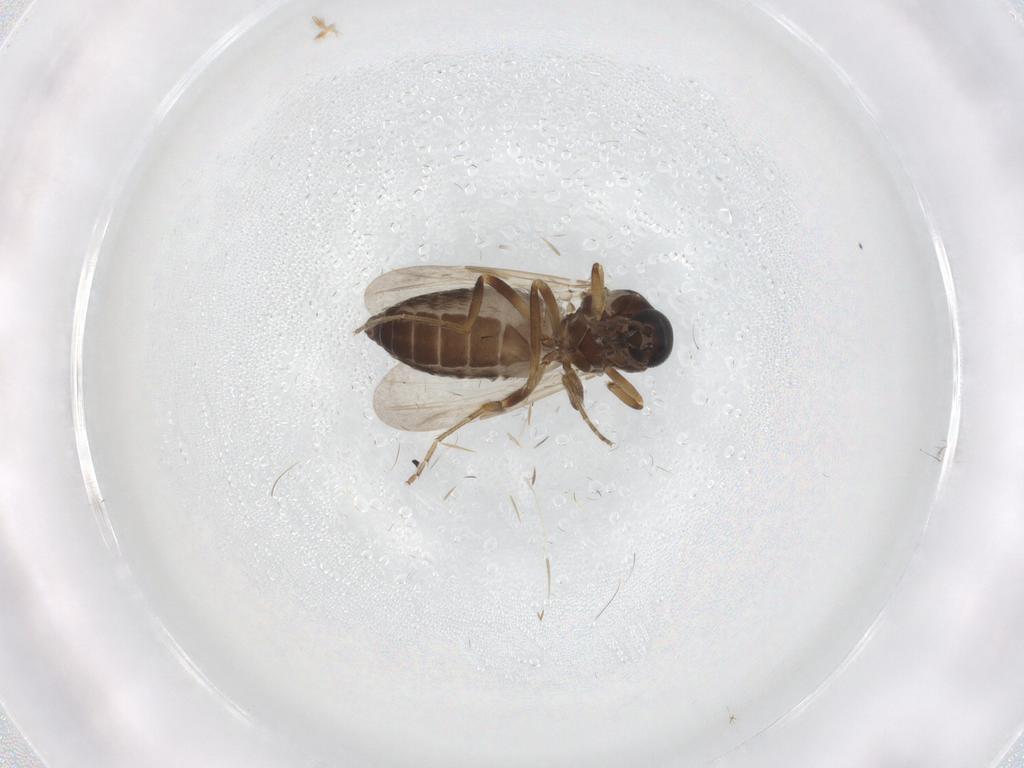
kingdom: Animalia
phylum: Arthropoda
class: Insecta
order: Diptera
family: Ceratopogonidae
